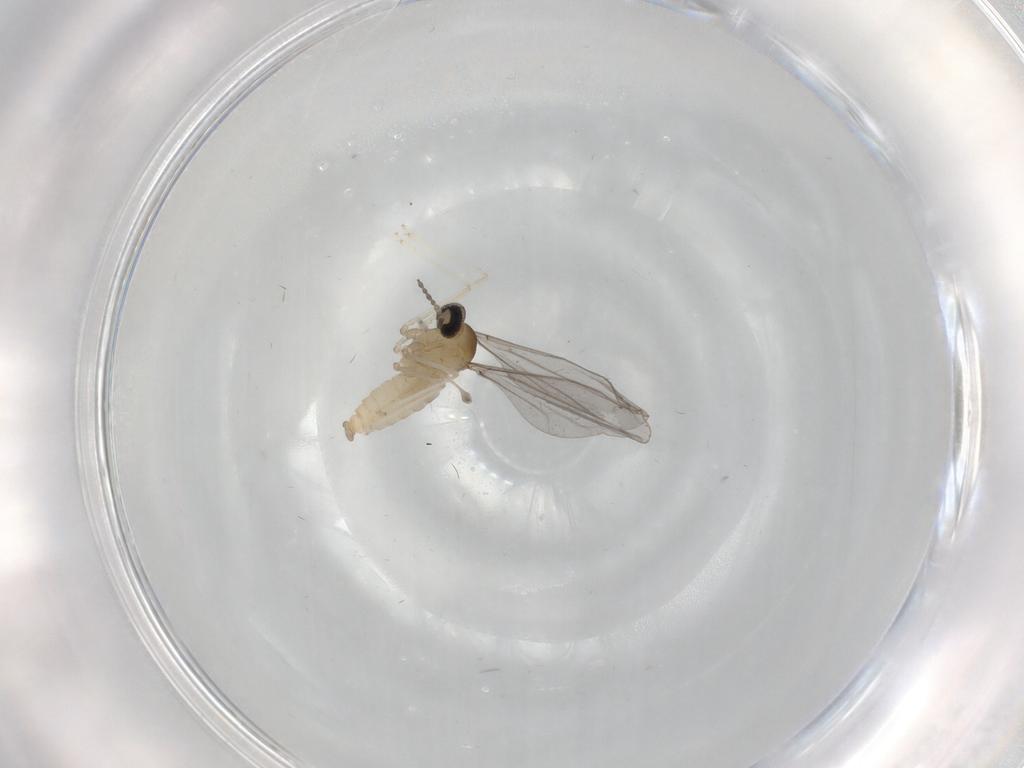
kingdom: Animalia
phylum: Arthropoda
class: Insecta
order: Diptera
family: Cecidomyiidae
